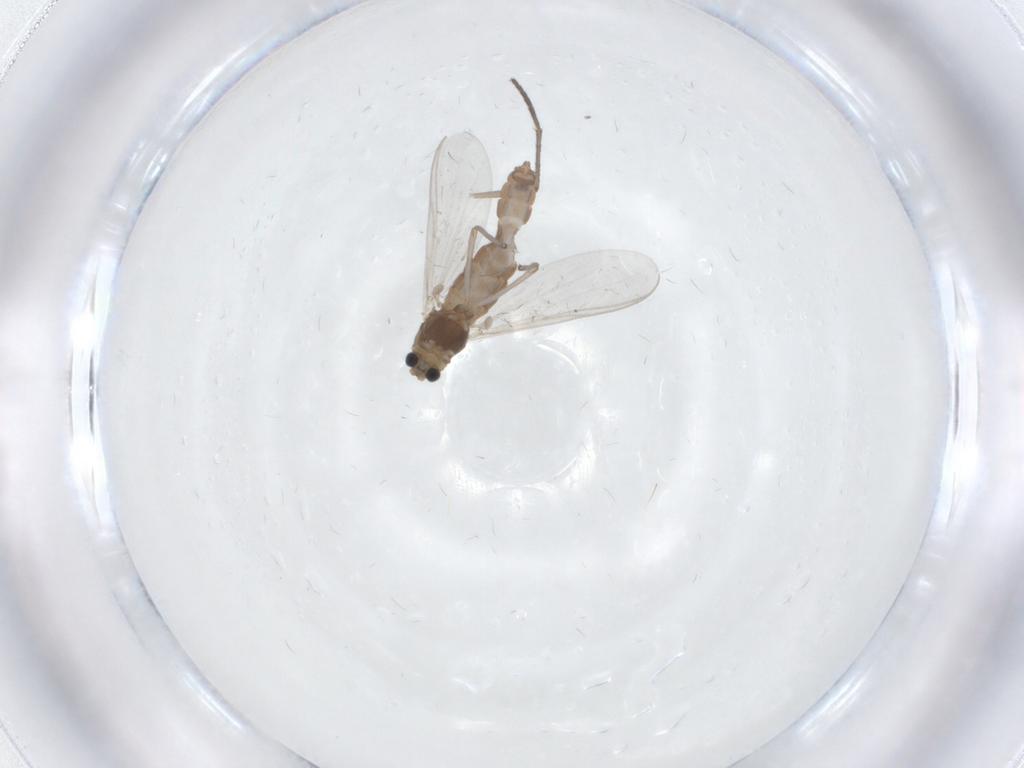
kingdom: Animalia
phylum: Arthropoda
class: Insecta
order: Diptera
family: Sciaridae
